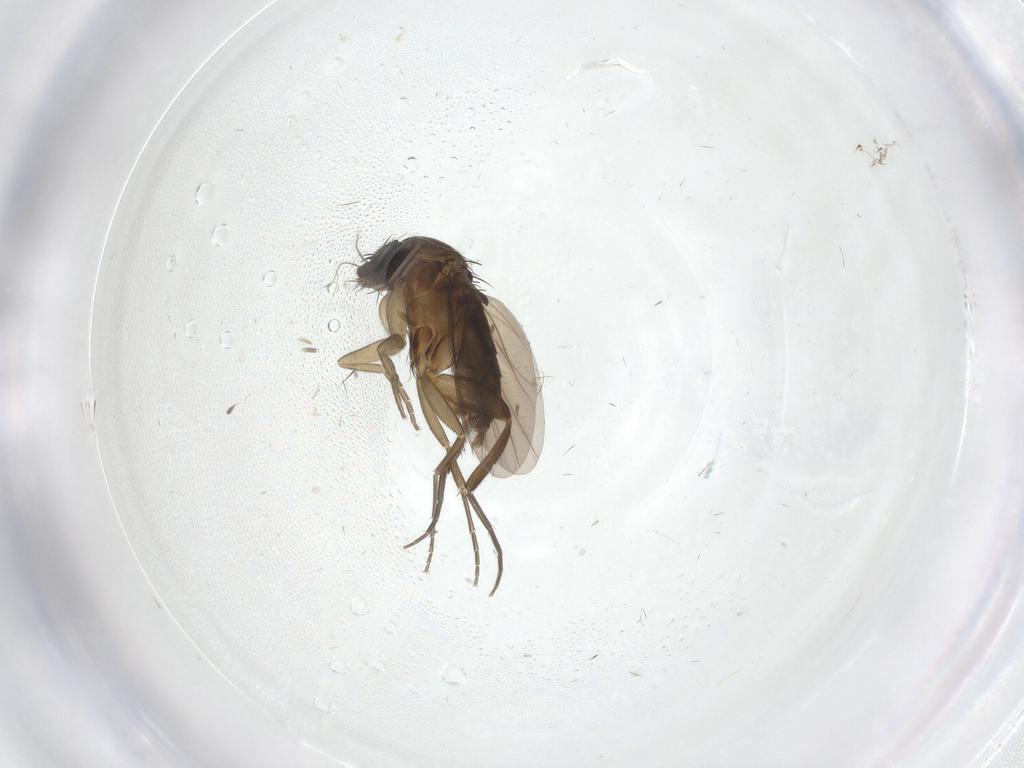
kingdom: Animalia
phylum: Arthropoda
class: Insecta
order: Diptera
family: Phoridae
